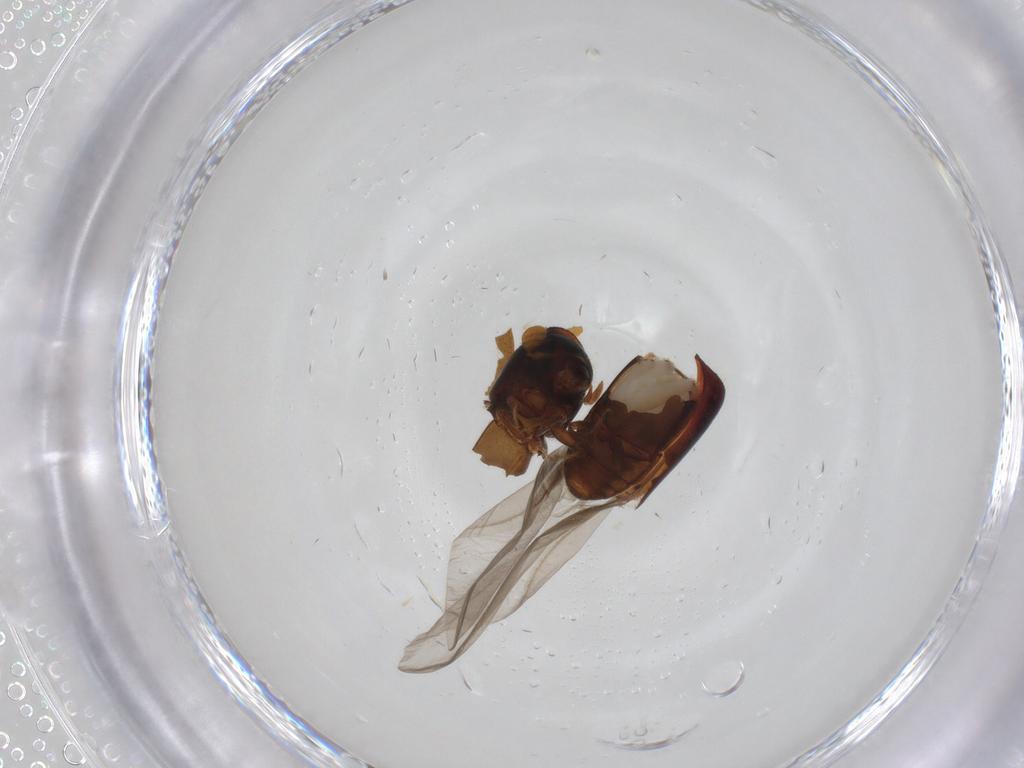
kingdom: Animalia
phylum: Arthropoda
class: Insecta
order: Coleoptera
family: Curculionidae
